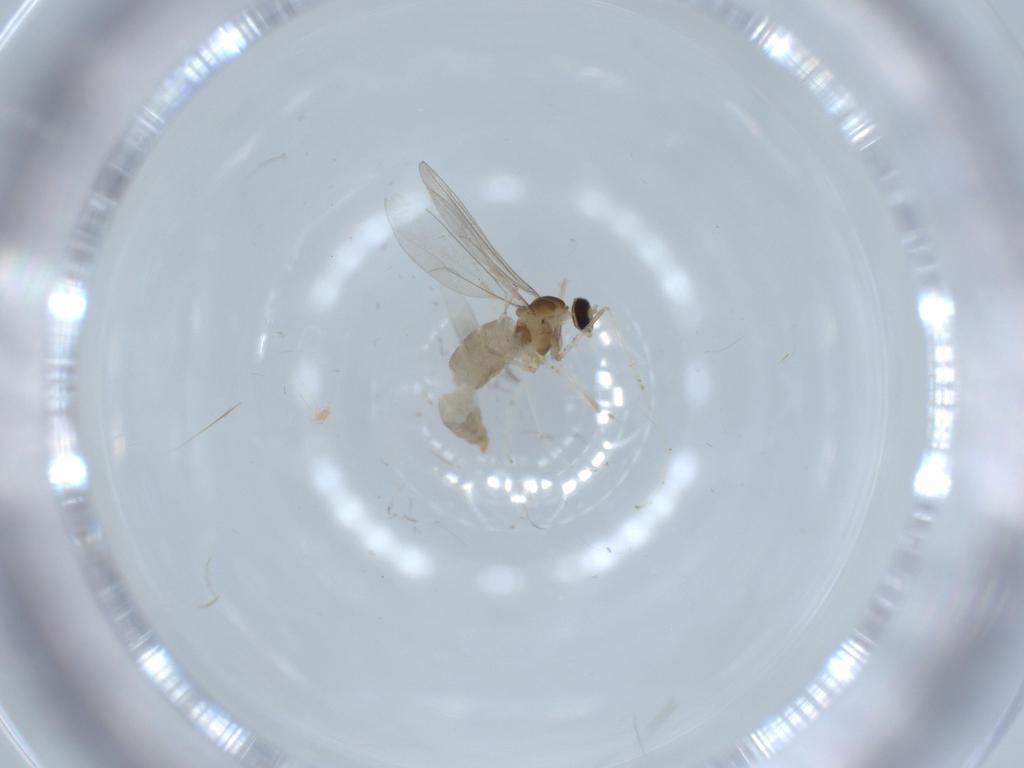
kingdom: Animalia
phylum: Arthropoda
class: Insecta
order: Diptera
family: Cecidomyiidae
